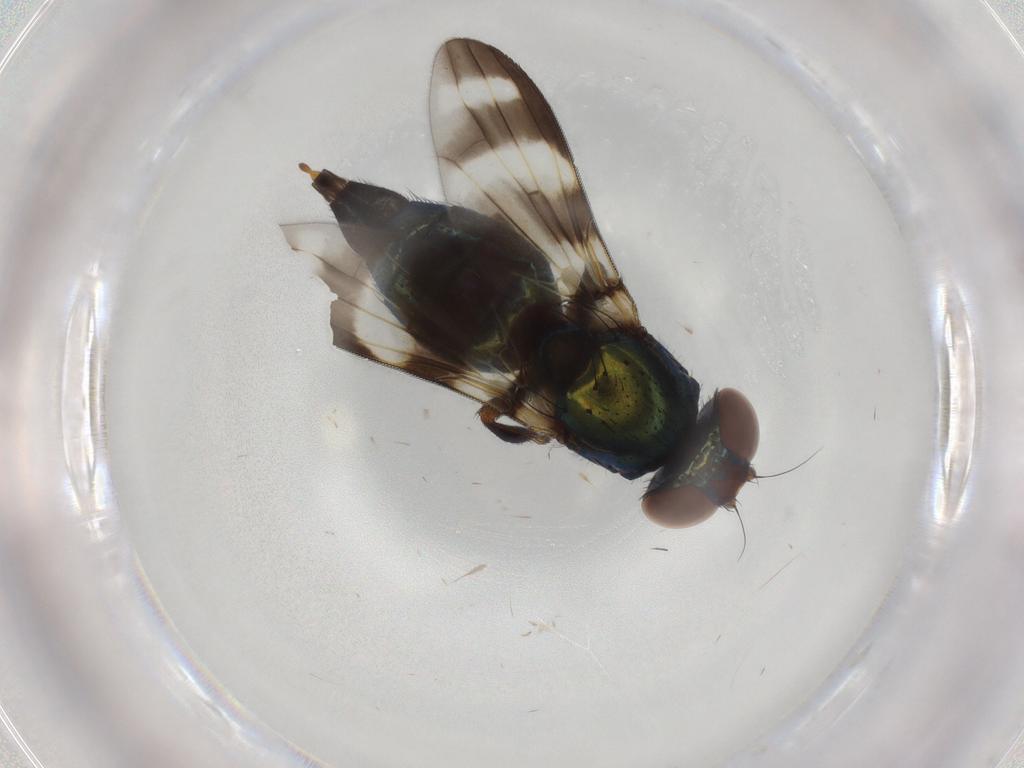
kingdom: Animalia
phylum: Arthropoda
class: Insecta
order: Diptera
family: Ulidiidae
